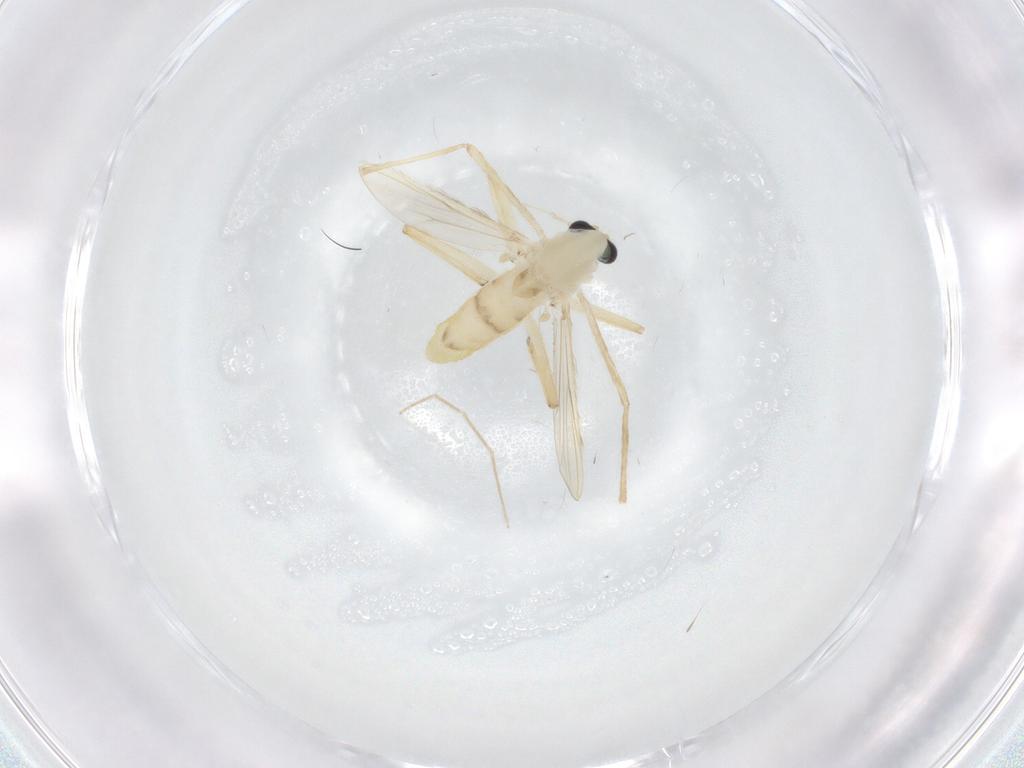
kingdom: Animalia
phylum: Arthropoda
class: Insecta
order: Diptera
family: Chironomidae
